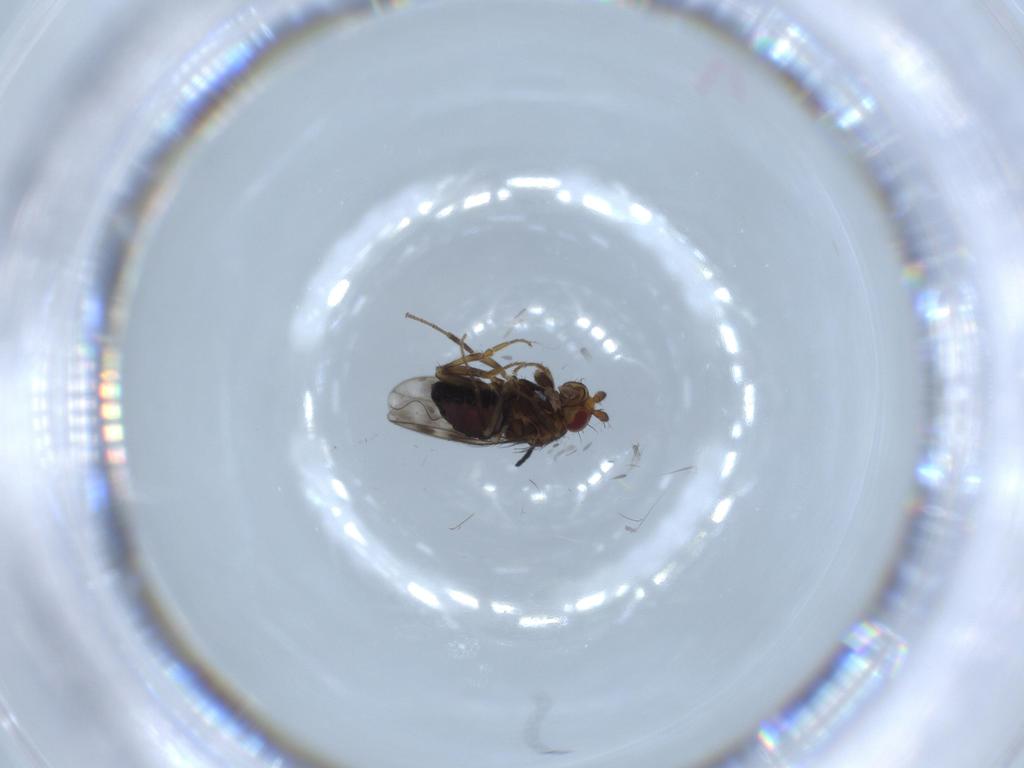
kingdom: Animalia
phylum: Arthropoda
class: Insecta
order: Diptera
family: Sphaeroceridae
